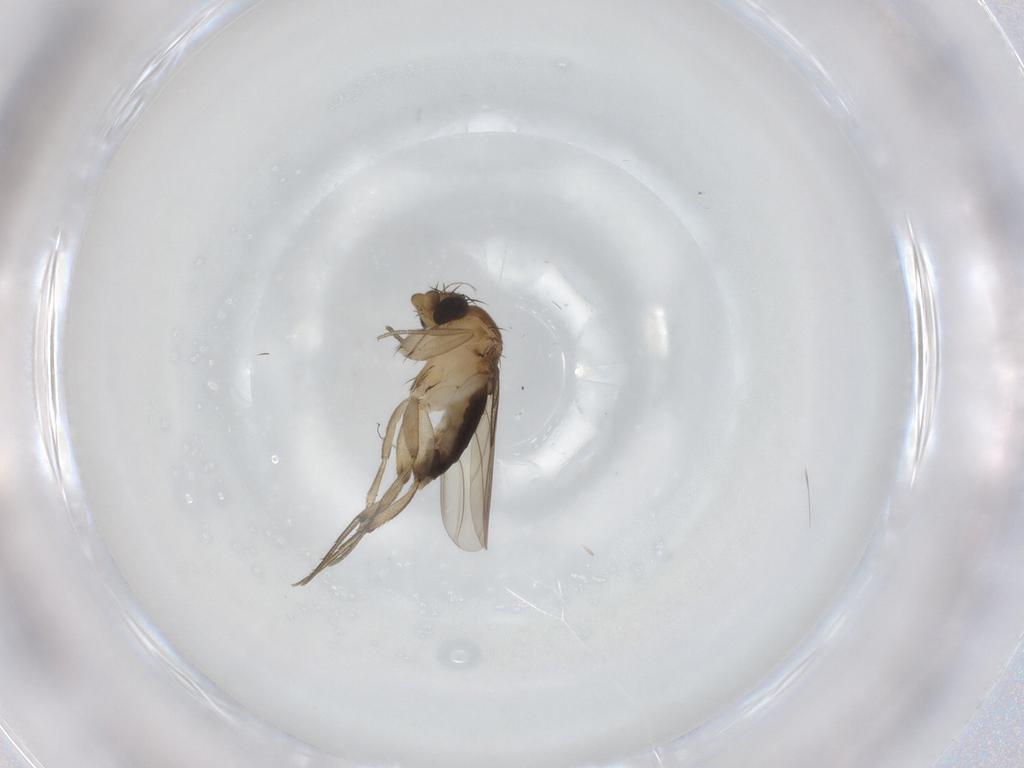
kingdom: Animalia
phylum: Arthropoda
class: Insecta
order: Diptera
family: Phoridae
